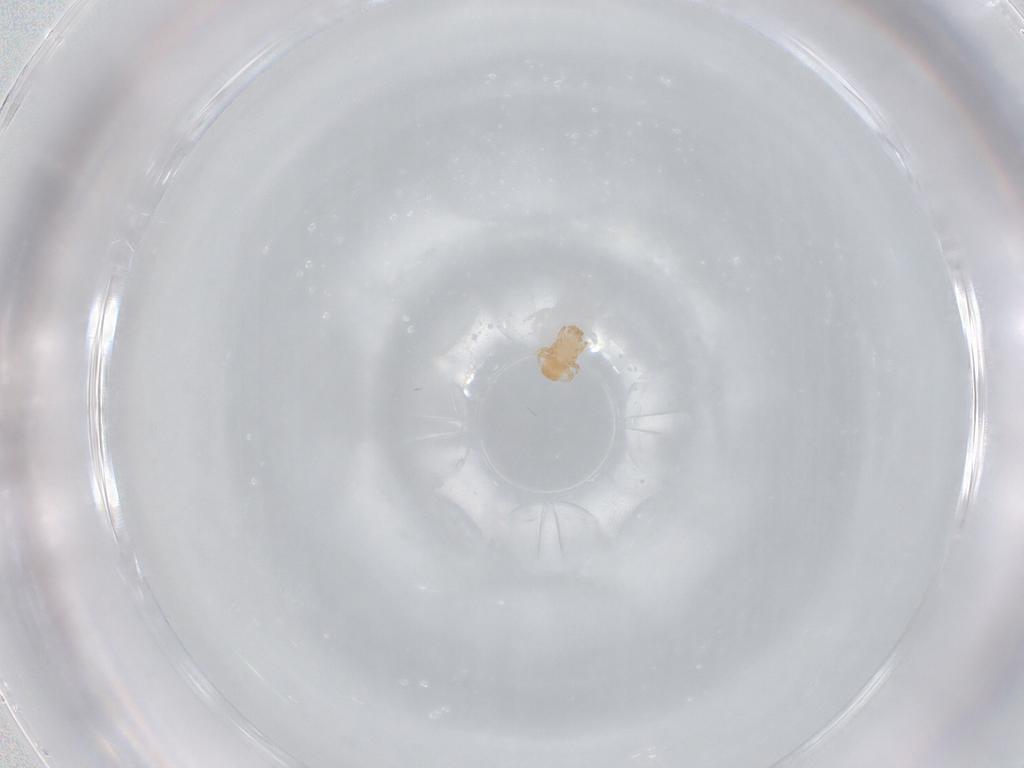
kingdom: Animalia
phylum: Arthropoda
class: Arachnida
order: Mesostigmata
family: Digamasellidae
